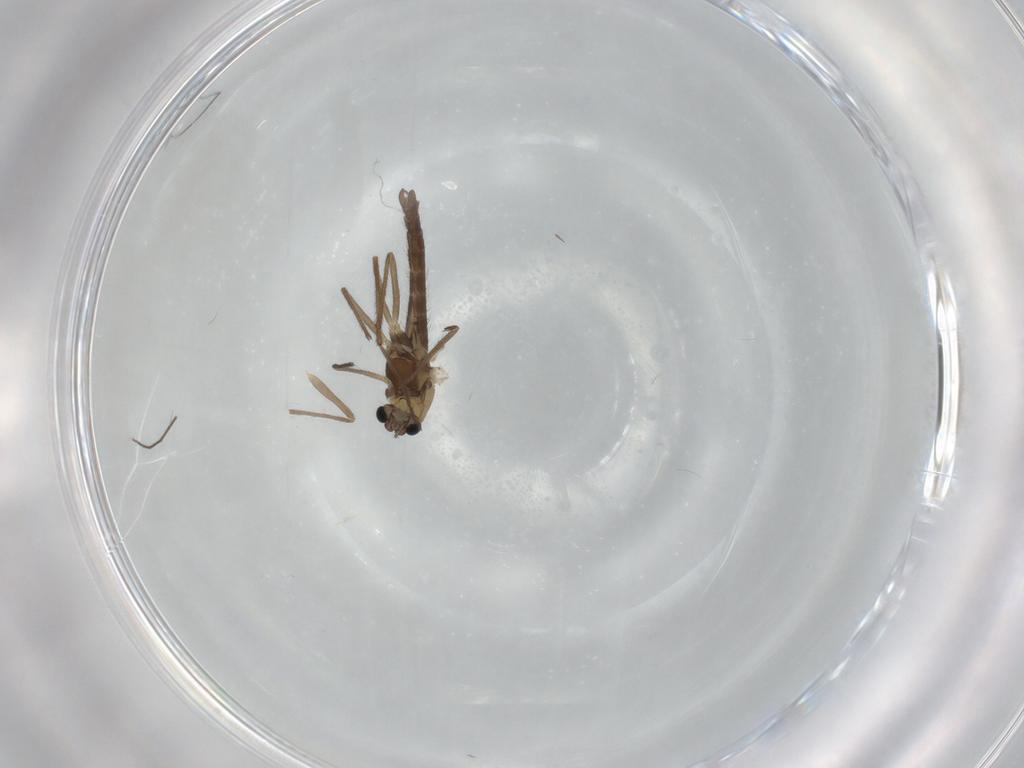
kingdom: Animalia
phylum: Arthropoda
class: Insecta
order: Diptera
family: Chironomidae
